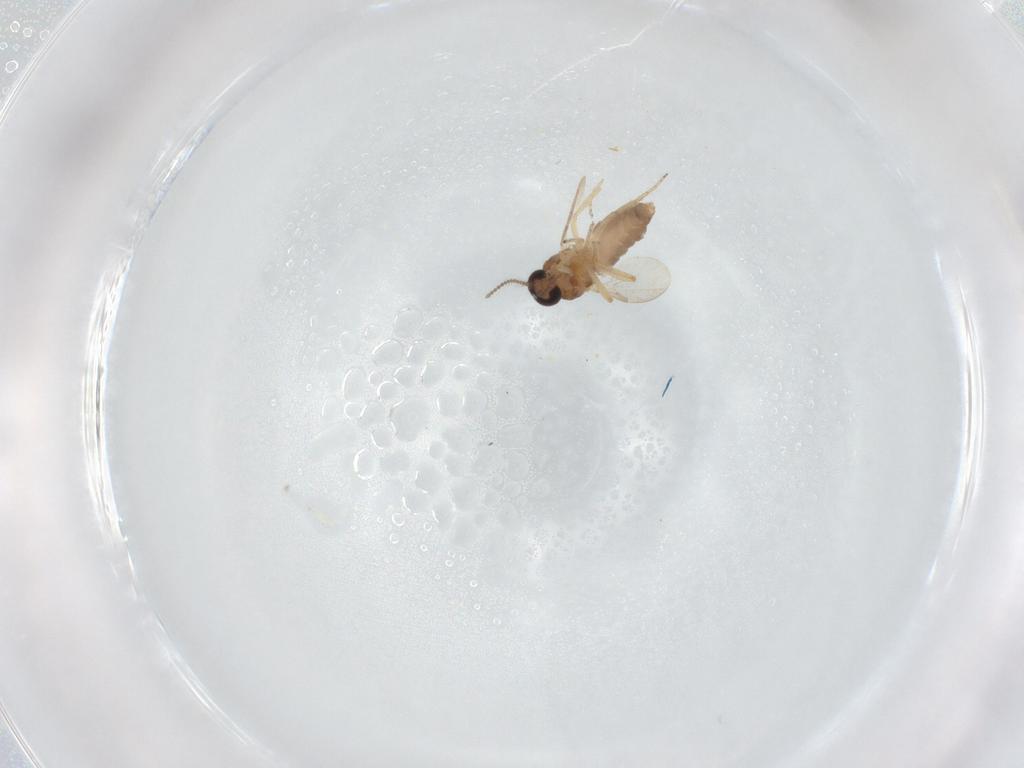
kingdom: Animalia
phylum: Arthropoda
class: Insecta
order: Diptera
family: Ceratopogonidae
